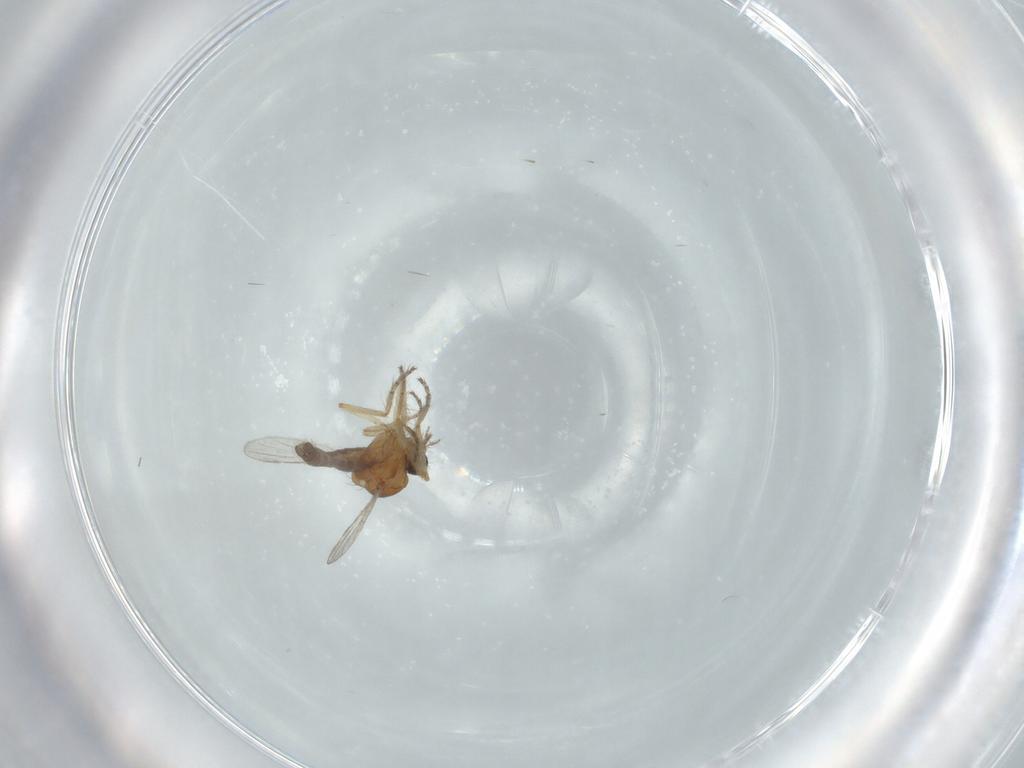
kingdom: Animalia
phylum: Arthropoda
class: Insecta
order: Diptera
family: Ceratopogonidae
